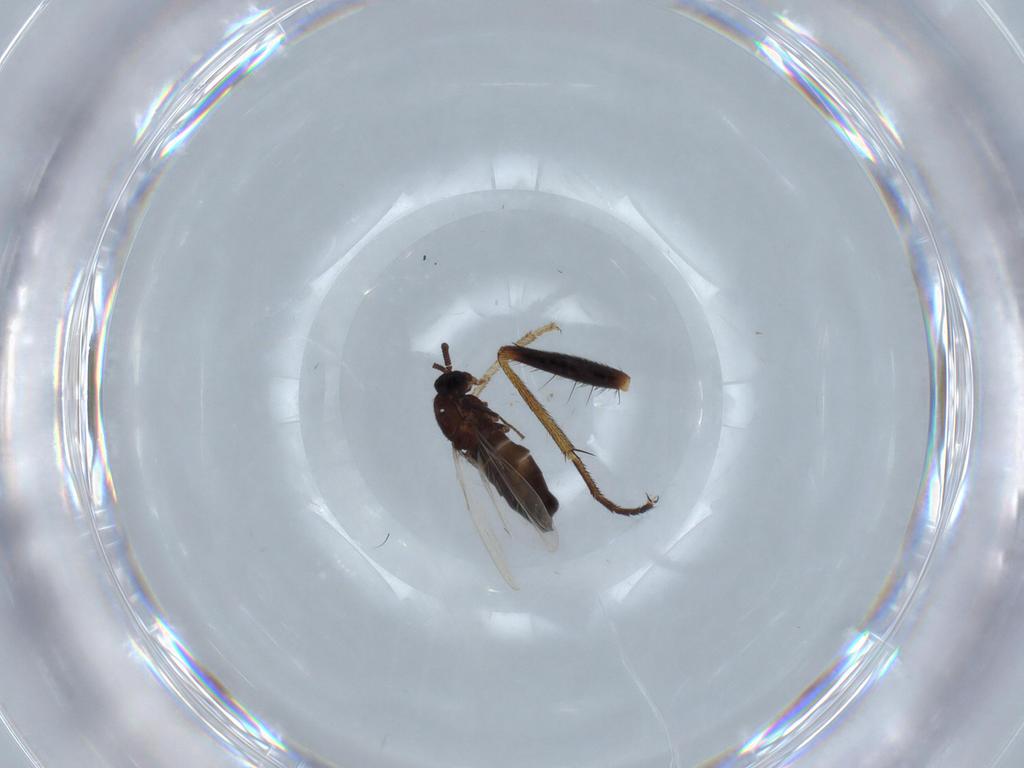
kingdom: Animalia
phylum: Arthropoda
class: Insecta
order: Diptera
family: Scatopsidae
